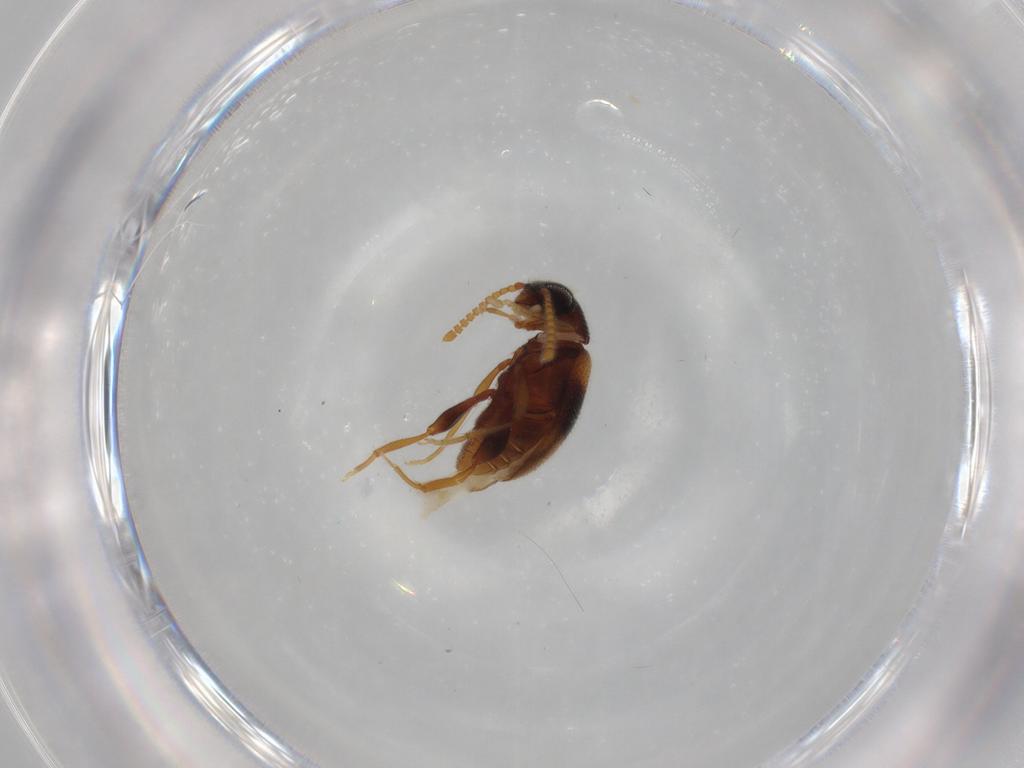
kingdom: Animalia
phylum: Arthropoda
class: Insecta
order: Coleoptera
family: Aderidae
